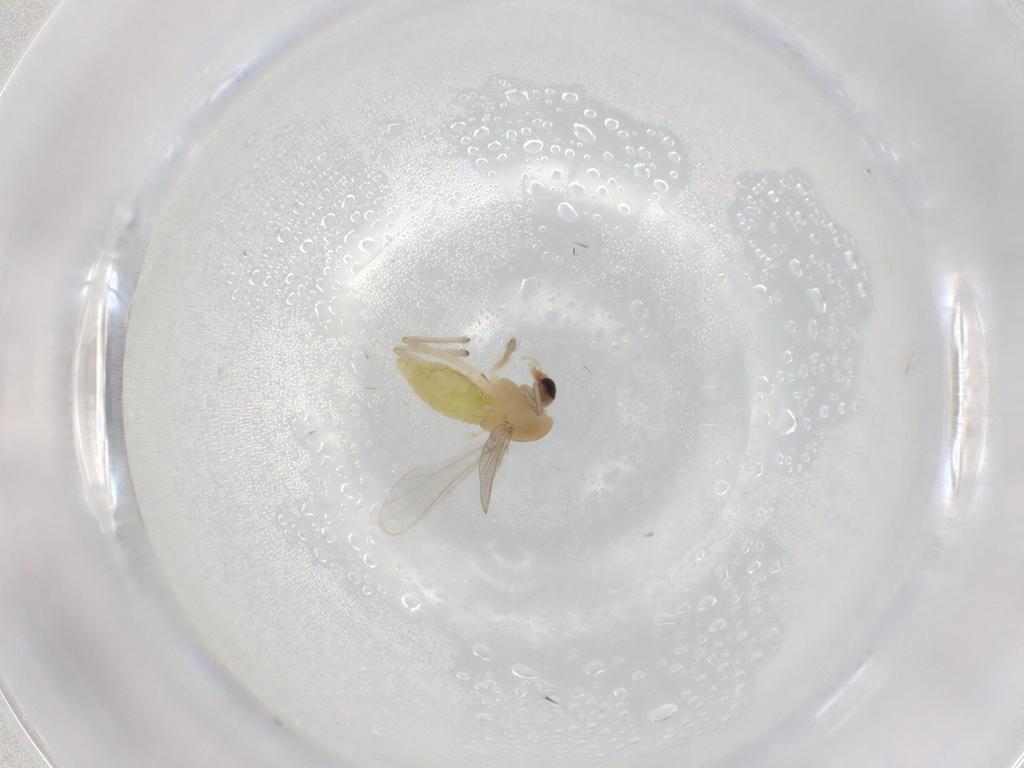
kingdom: Animalia
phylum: Arthropoda
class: Insecta
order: Diptera
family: Chironomidae
